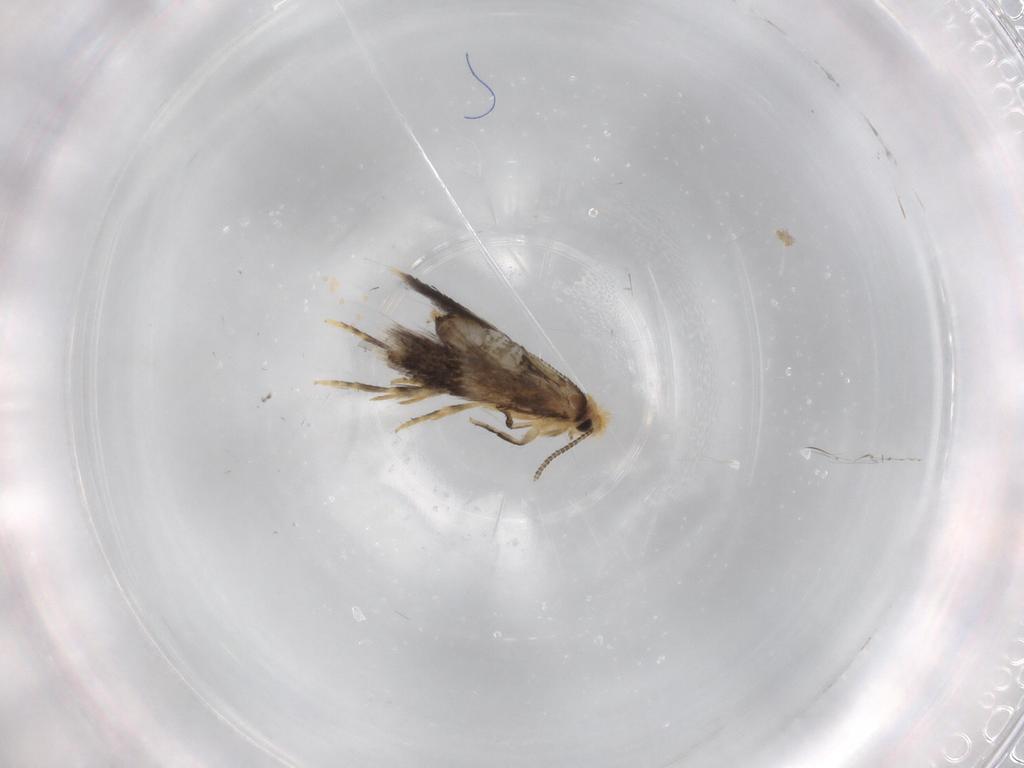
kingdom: Animalia
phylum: Arthropoda
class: Insecta
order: Lepidoptera
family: Nepticulidae
